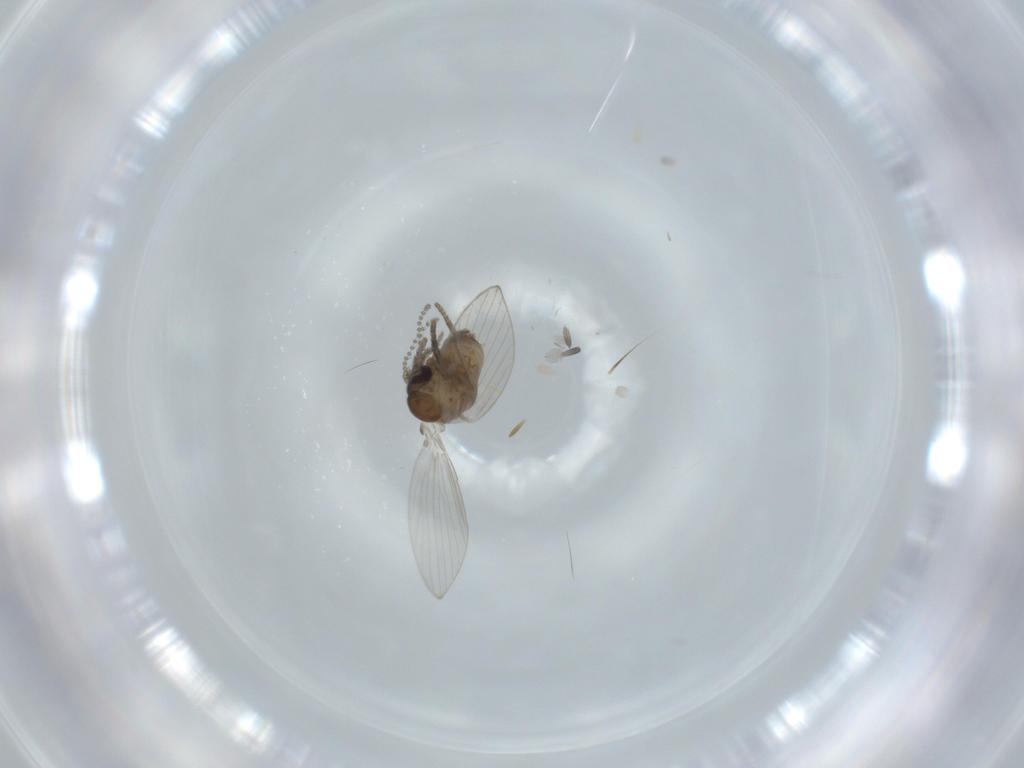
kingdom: Animalia
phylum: Arthropoda
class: Insecta
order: Diptera
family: Psychodidae
